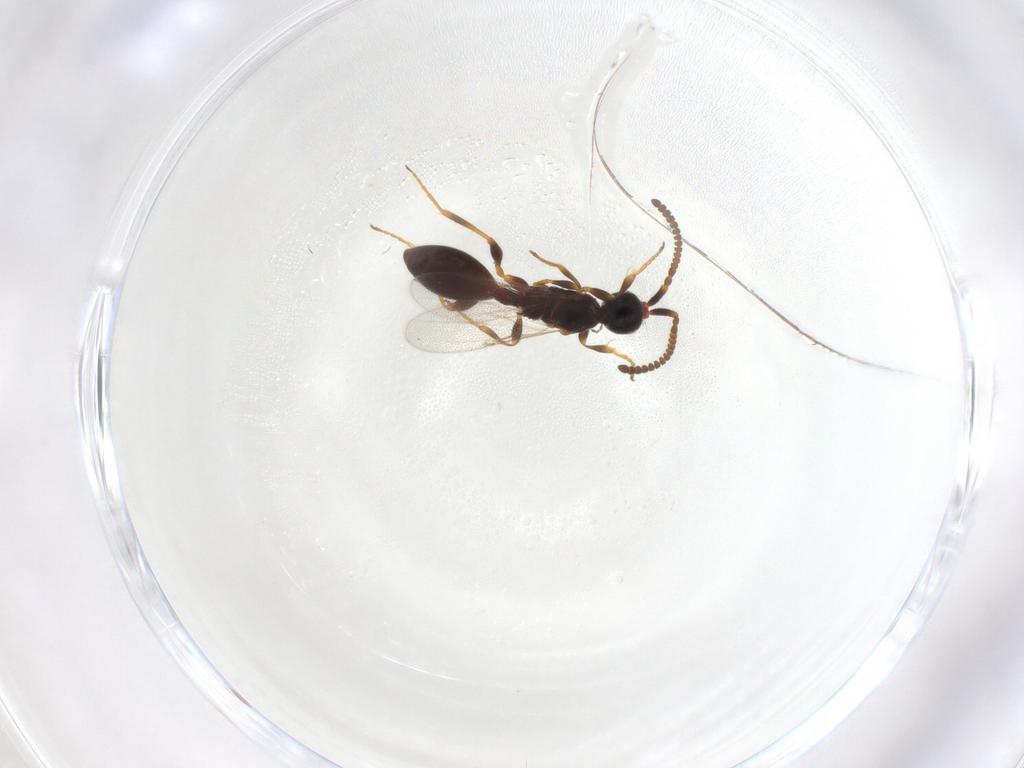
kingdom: Animalia
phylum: Arthropoda
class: Insecta
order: Hymenoptera
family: Diapriidae
